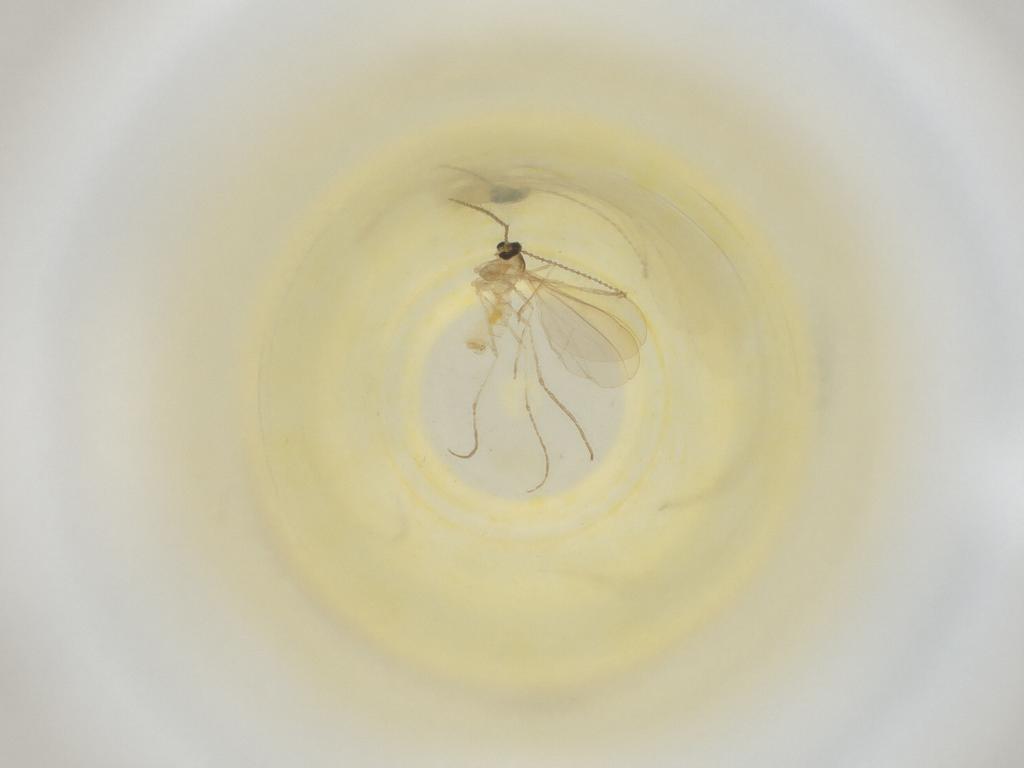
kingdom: Animalia
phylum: Arthropoda
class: Insecta
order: Diptera
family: Cecidomyiidae
